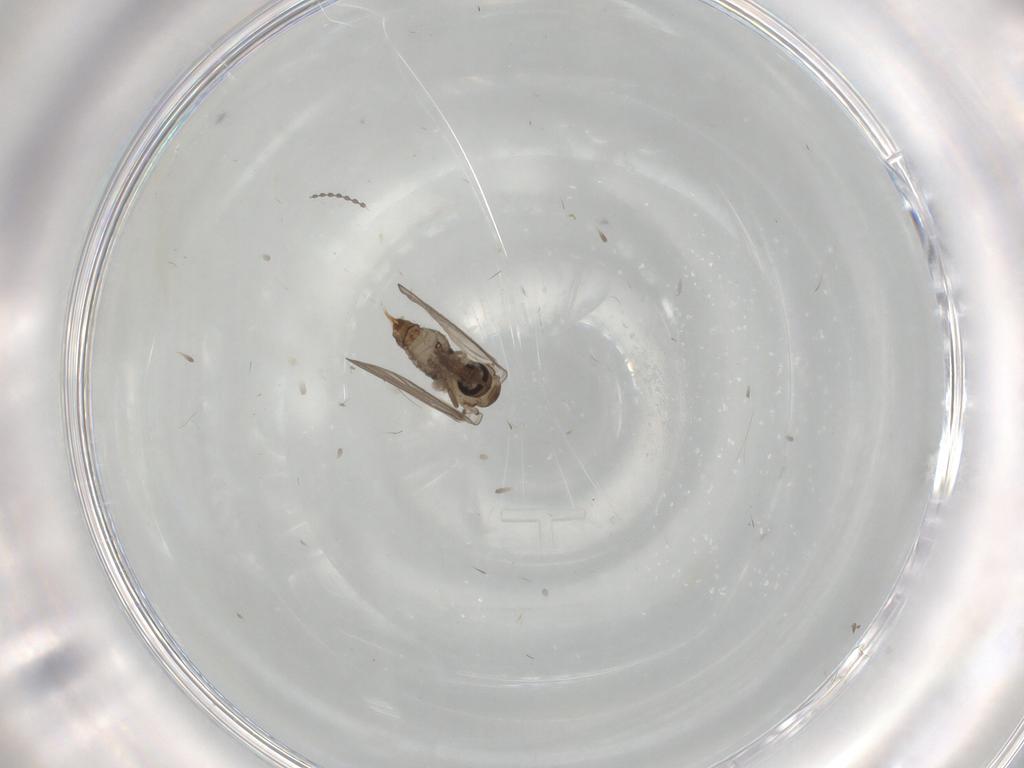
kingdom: Animalia
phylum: Arthropoda
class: Insecta
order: Diptera
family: Psychodidae
